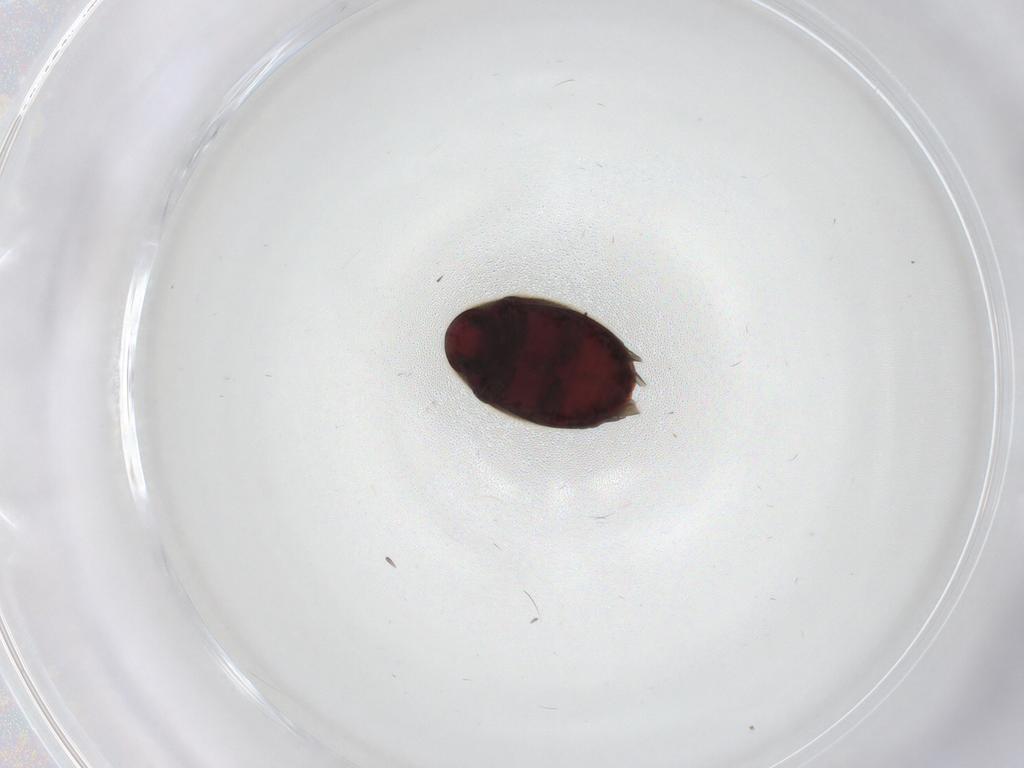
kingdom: Animalia
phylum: Arthropoda
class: Insecta
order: Coleoptera
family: Ptinidae
